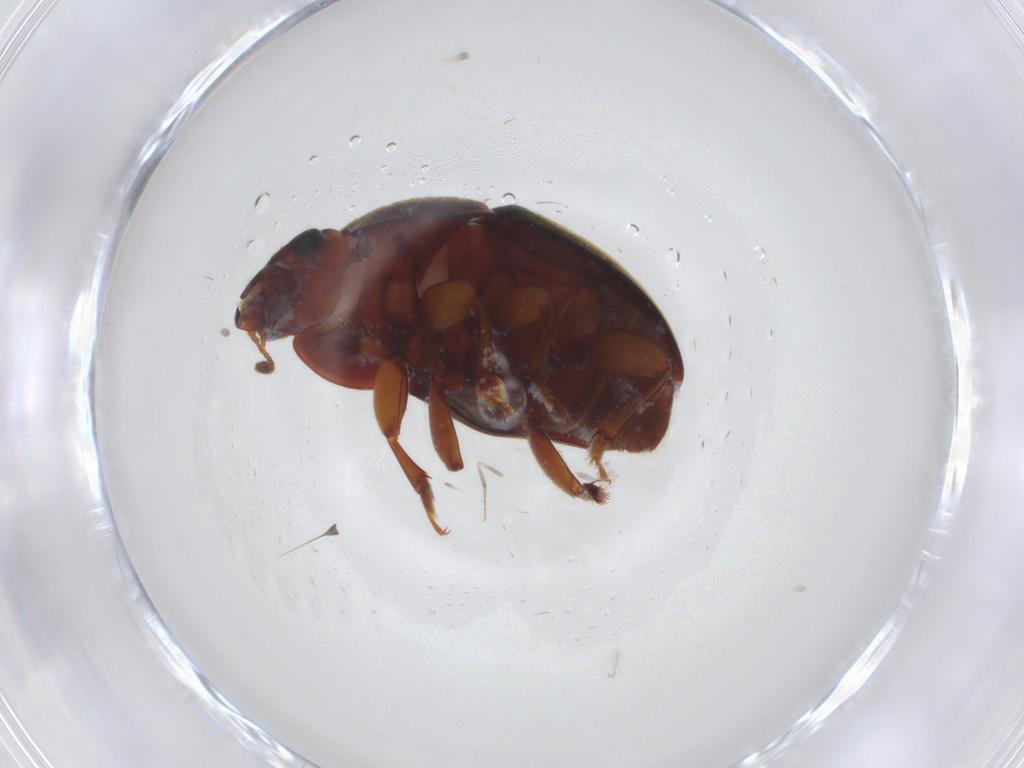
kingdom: Animalia
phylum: Arthropoda
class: Insecta
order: Coleoptera
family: Nitidulidae
